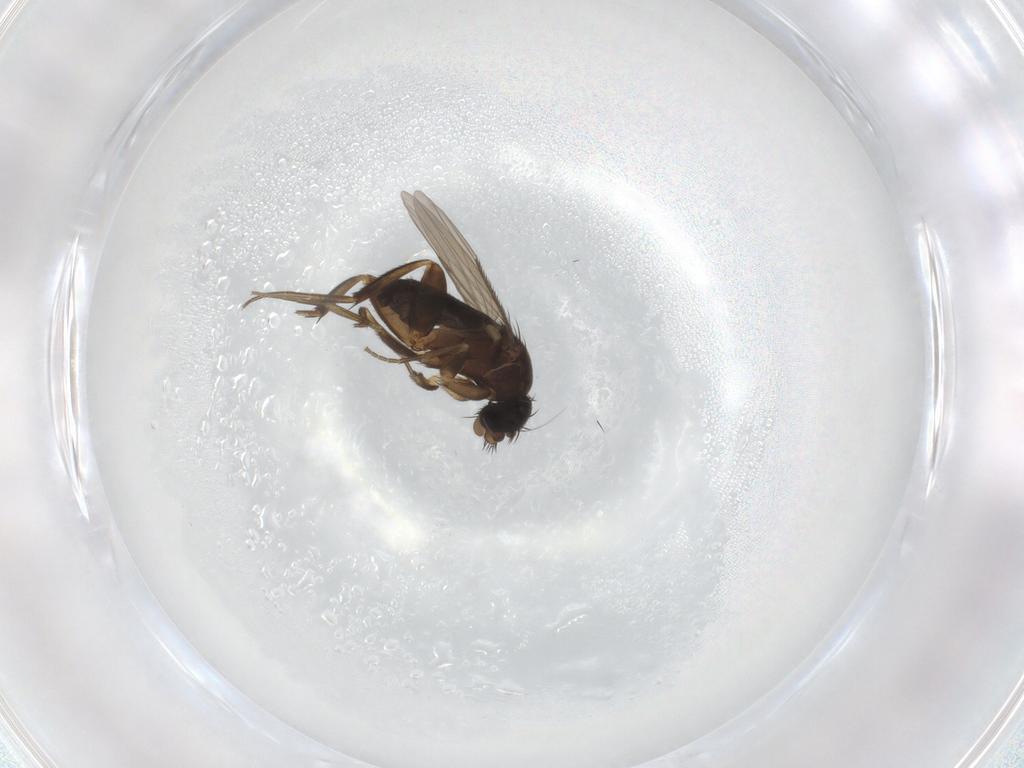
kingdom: Animalia
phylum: Arthropoda
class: Insecta
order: Diptera
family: Phoridae
